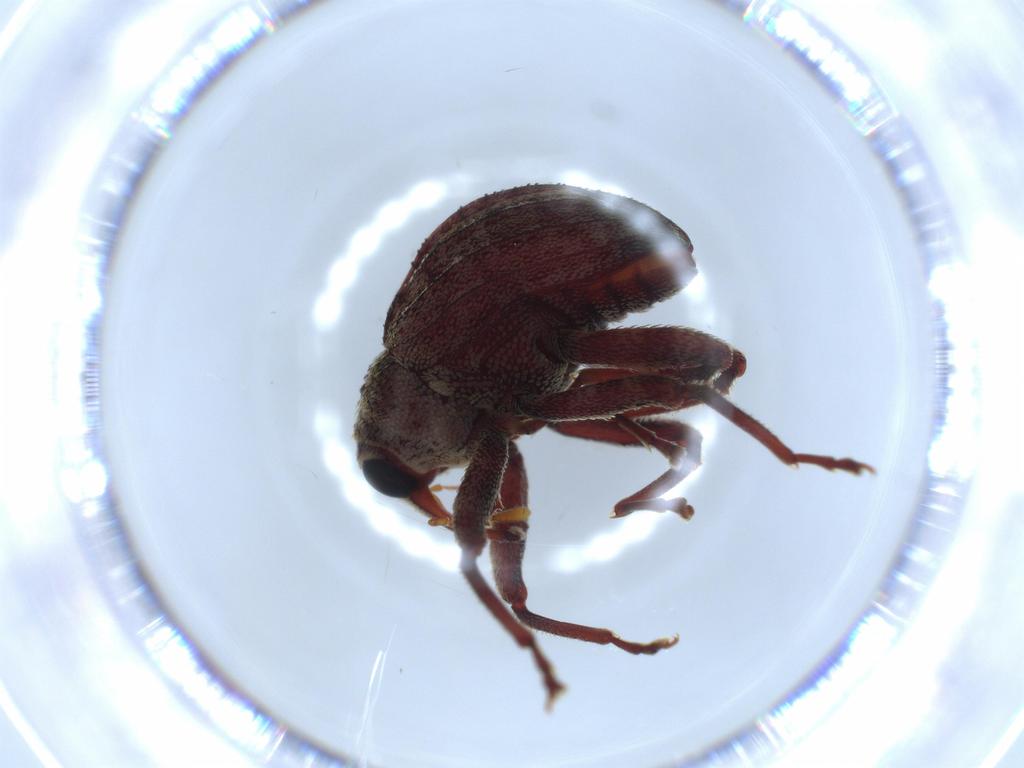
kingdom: Animalia
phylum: Arthropoda
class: Insecta
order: Coleoptera
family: Curculionidae
